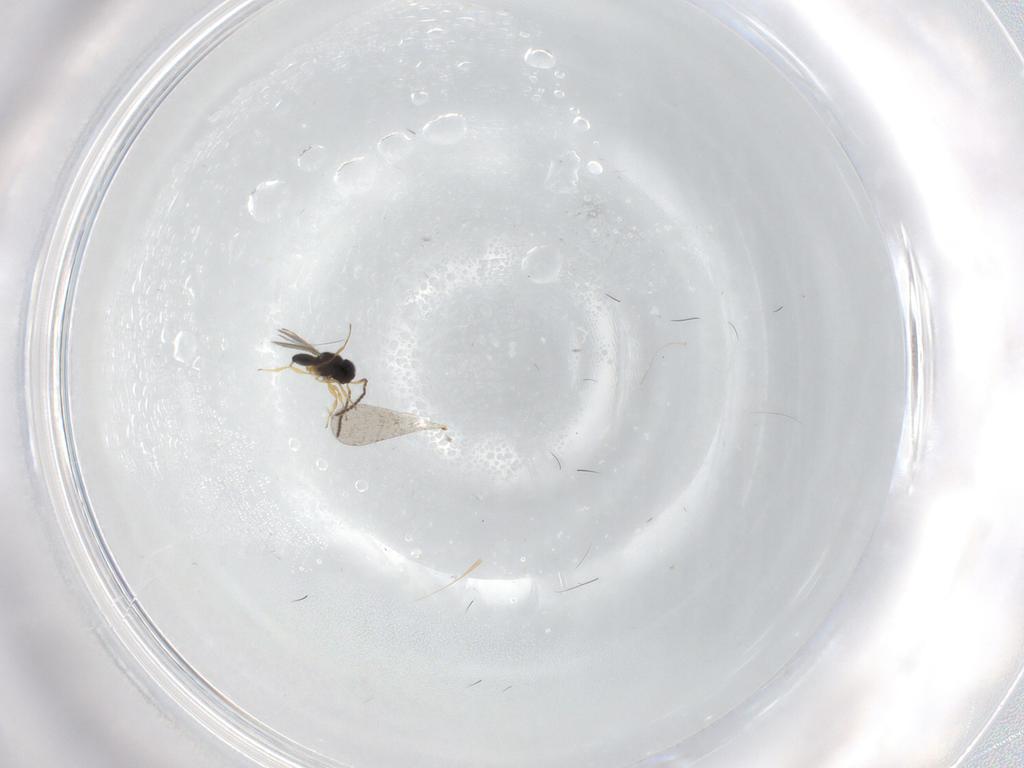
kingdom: Animalia
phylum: Arthropoda
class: Insecta
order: Hymenoptera
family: Scelionidae
